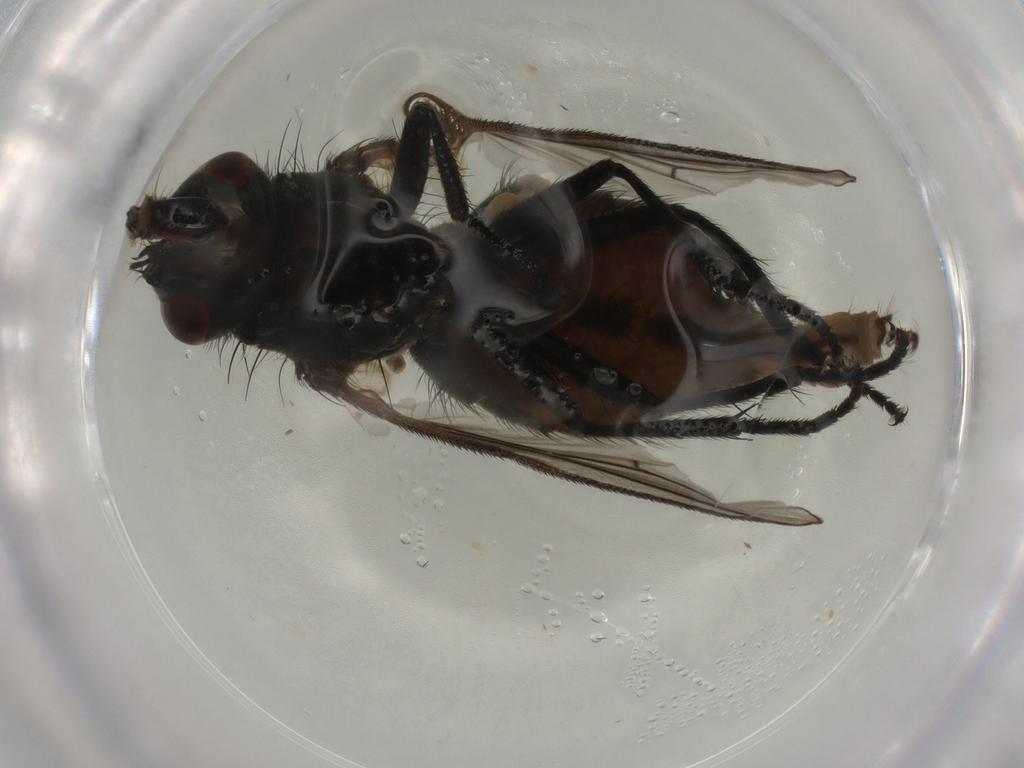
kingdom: Animalia
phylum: Arthropoda
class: Insecta
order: Diptera
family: Muscidae
